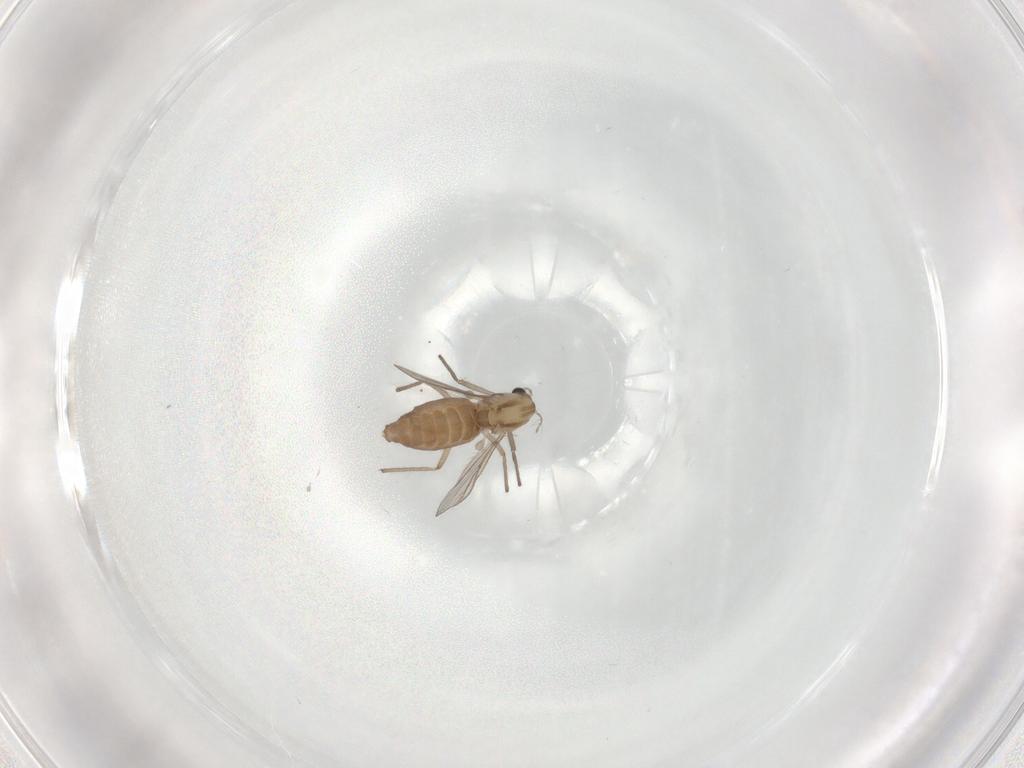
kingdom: Animalia
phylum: Arthropoda
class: Insecta
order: Diptera
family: Chironomidae
